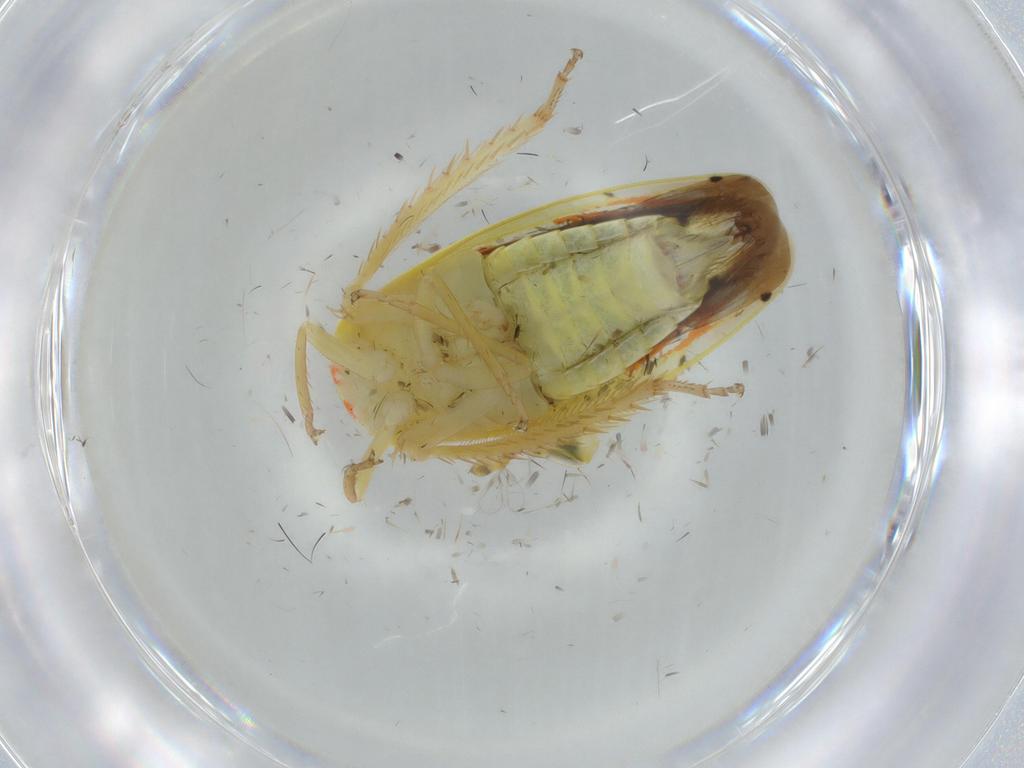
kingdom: Animalia
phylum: Arthropoda
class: Insecta
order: Hemiptera
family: Cicadellidae
